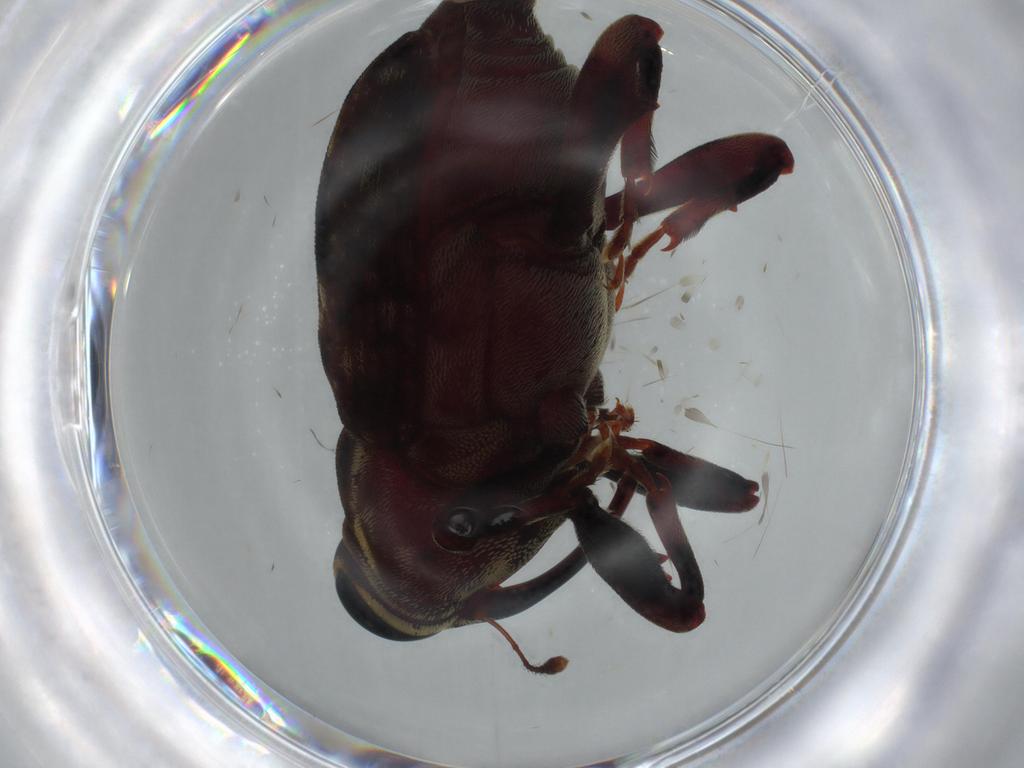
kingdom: Animalia
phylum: Arthropoda
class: Insecta
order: Coleoptera
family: Curculionidae
